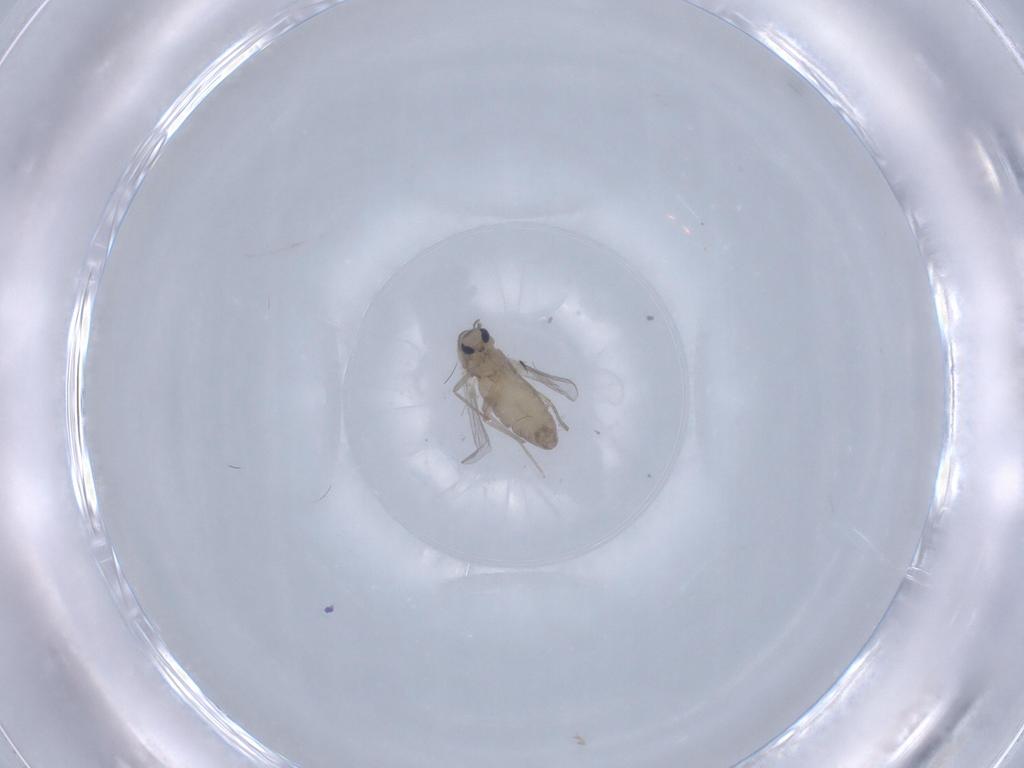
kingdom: Animalia
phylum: Arthropoda
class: Insecta
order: Diptera
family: Chironomidae
